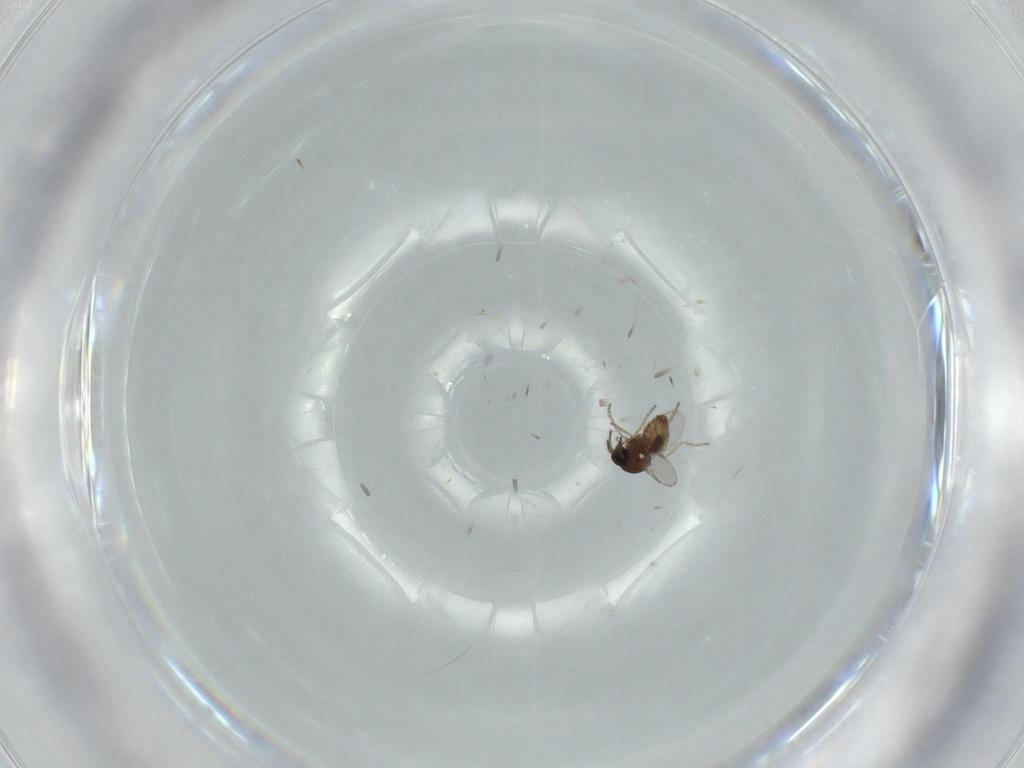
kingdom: Animalia
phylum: Arthropoda
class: Insecta
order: Diptera
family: Ceratopogonidae
